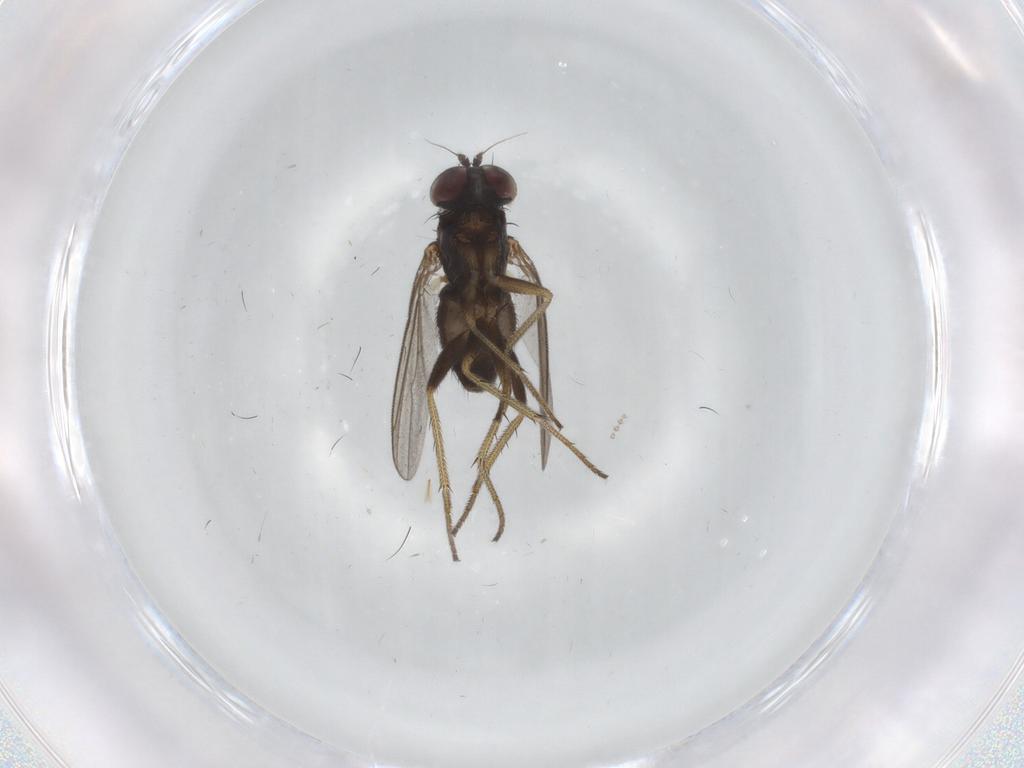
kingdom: Animalia
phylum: Arthropoda
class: Insecta
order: Diptera
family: Dolichopodidae
